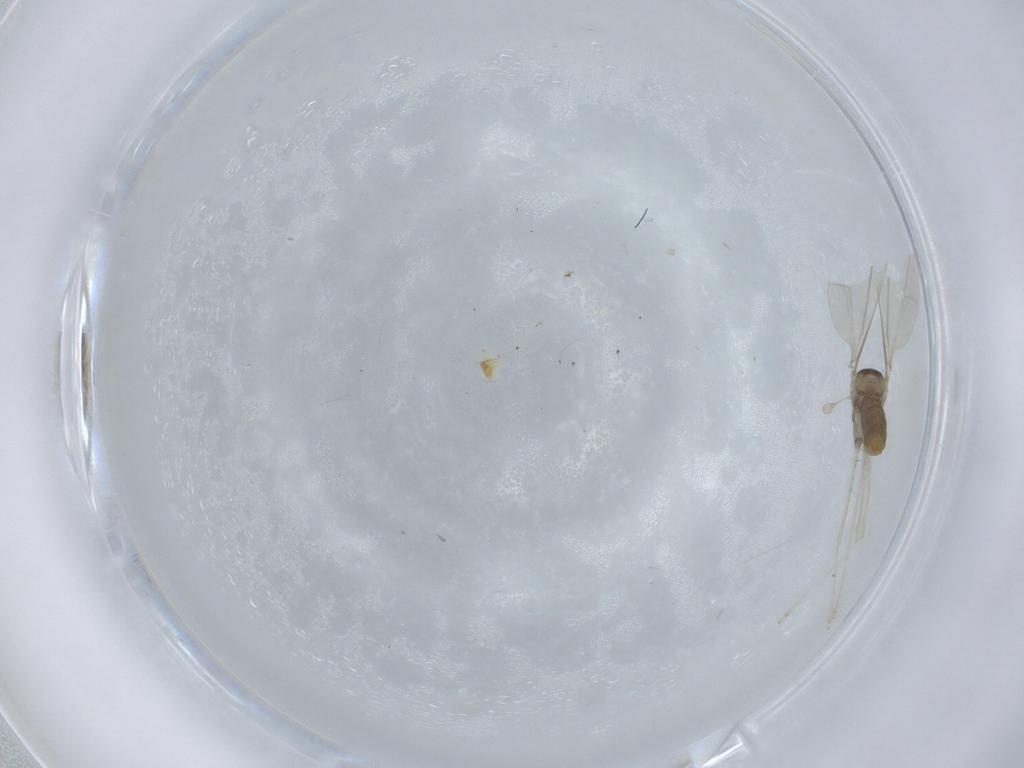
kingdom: Animalia
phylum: Arthropoda
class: Insecta
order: Diptera
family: Cecidomyiidae
